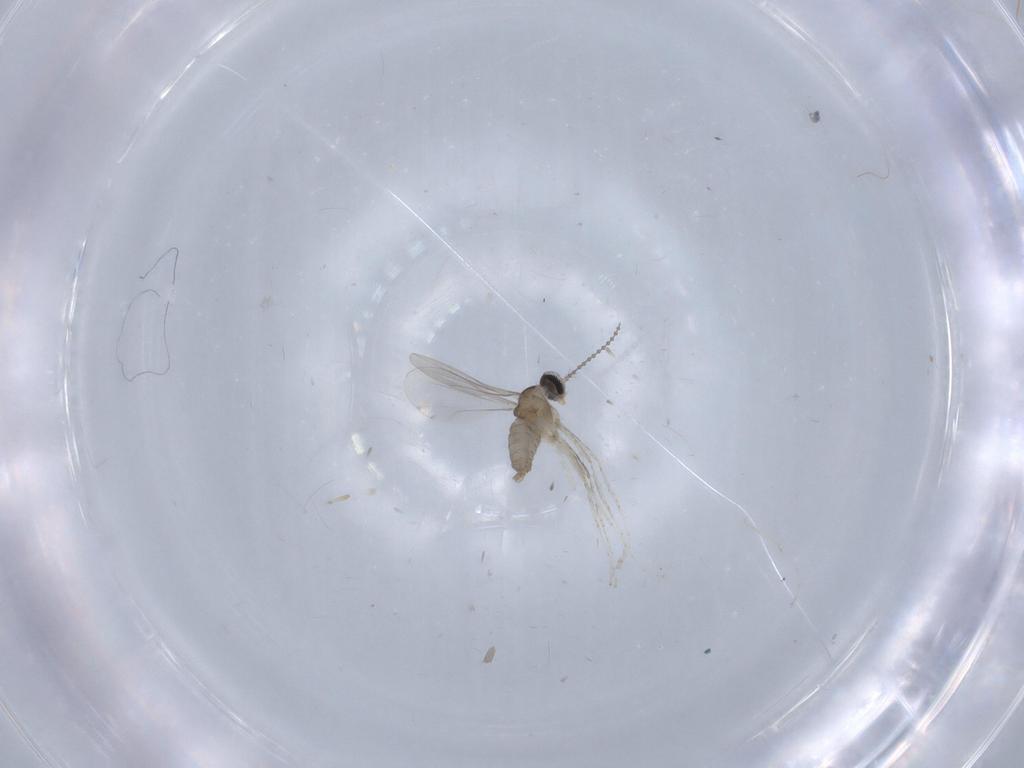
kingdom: Animalia
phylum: Arthropoda
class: Insecta
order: Diptera
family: Cecidomyiidae
